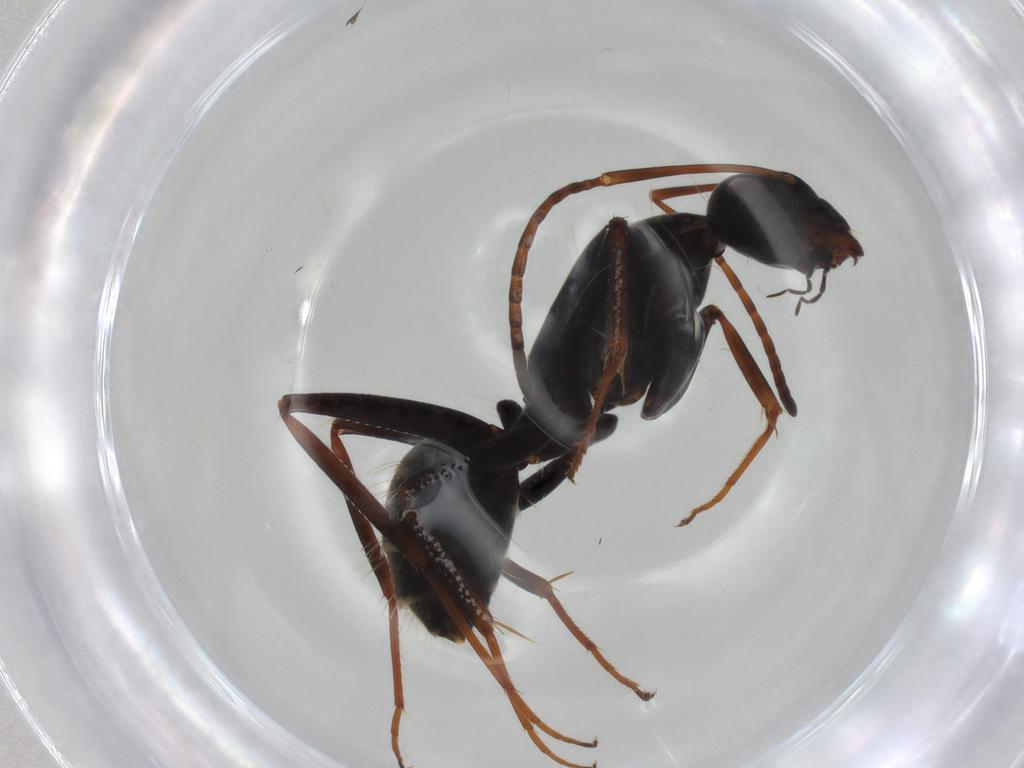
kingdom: Animalia
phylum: Arthropoda
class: Insecta
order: Hymenoptera
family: Formicidae
